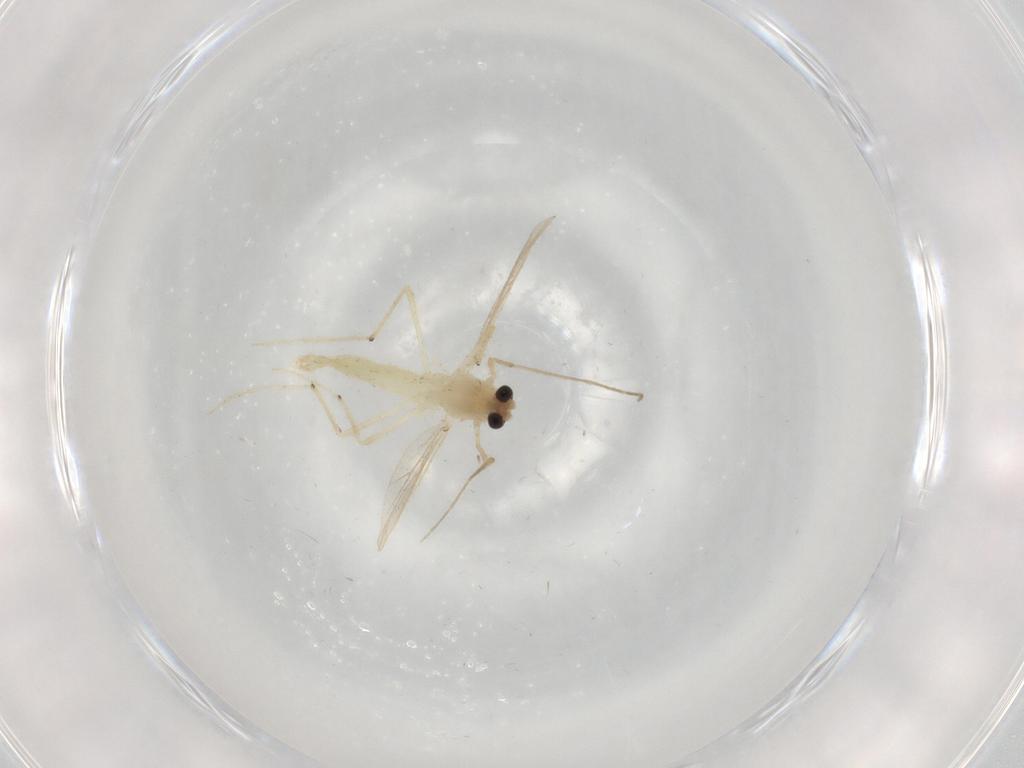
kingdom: Animalia
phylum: Arthropoda
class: Insecta
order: Diptera
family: Chironomidae
